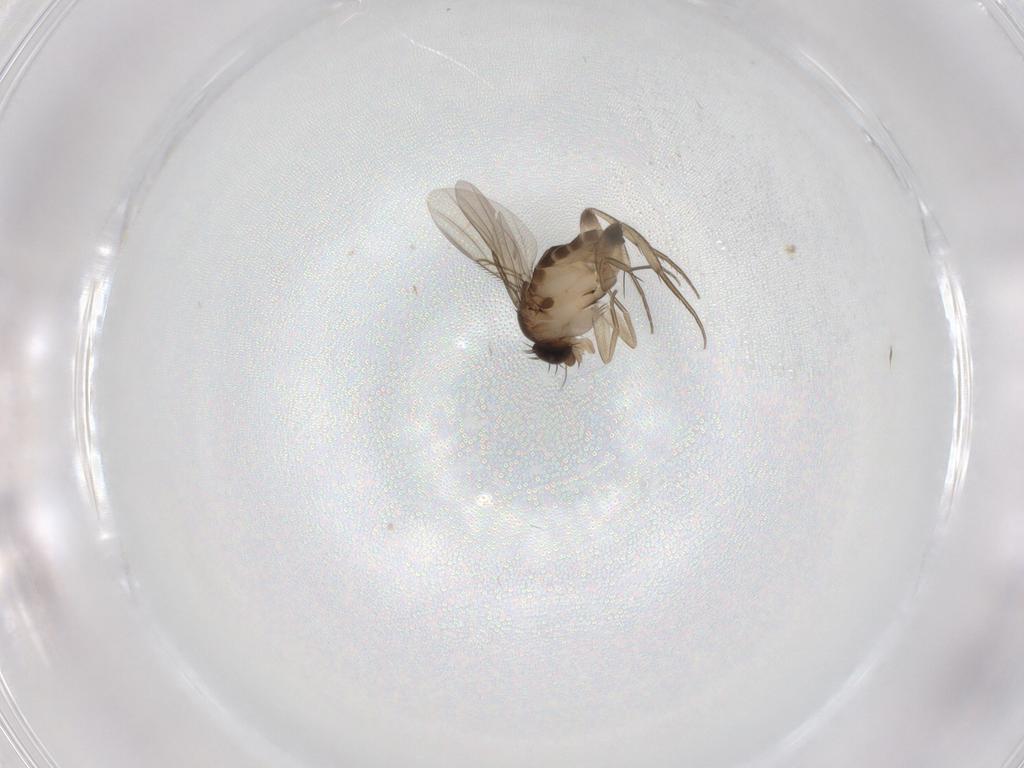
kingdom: Animalia
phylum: Arthropoda
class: Insecta
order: Diptera
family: Phoridae
